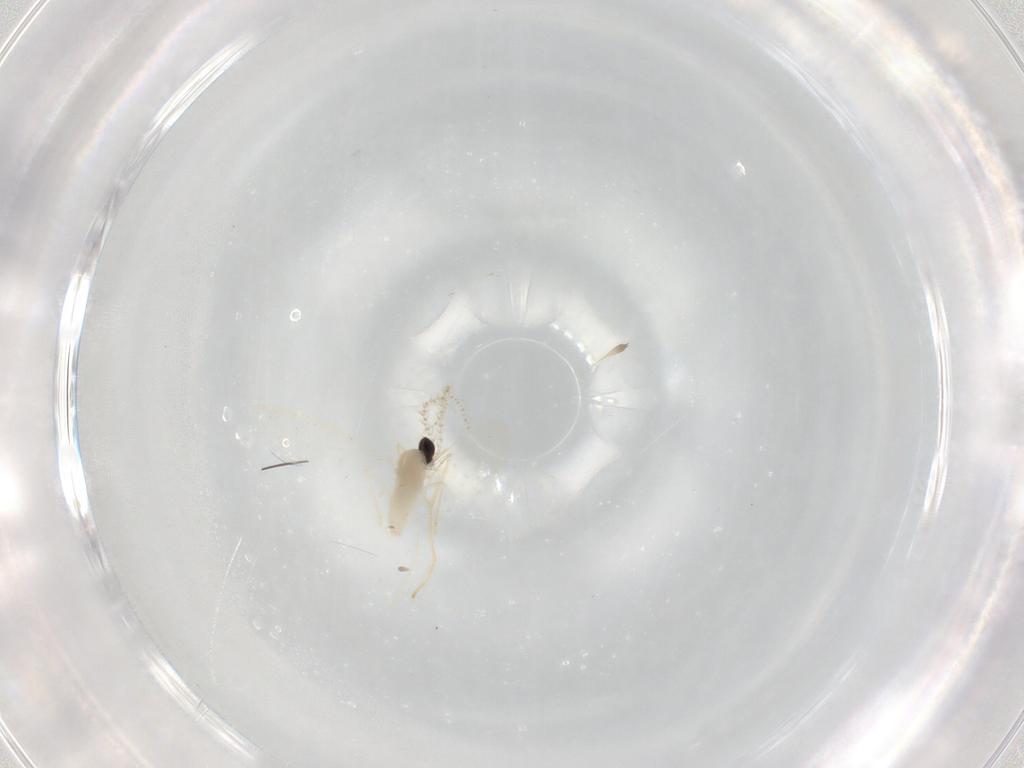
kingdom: Animalia
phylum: Arthropoda
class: Insecta
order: Diptera
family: Cecidomyiidae
